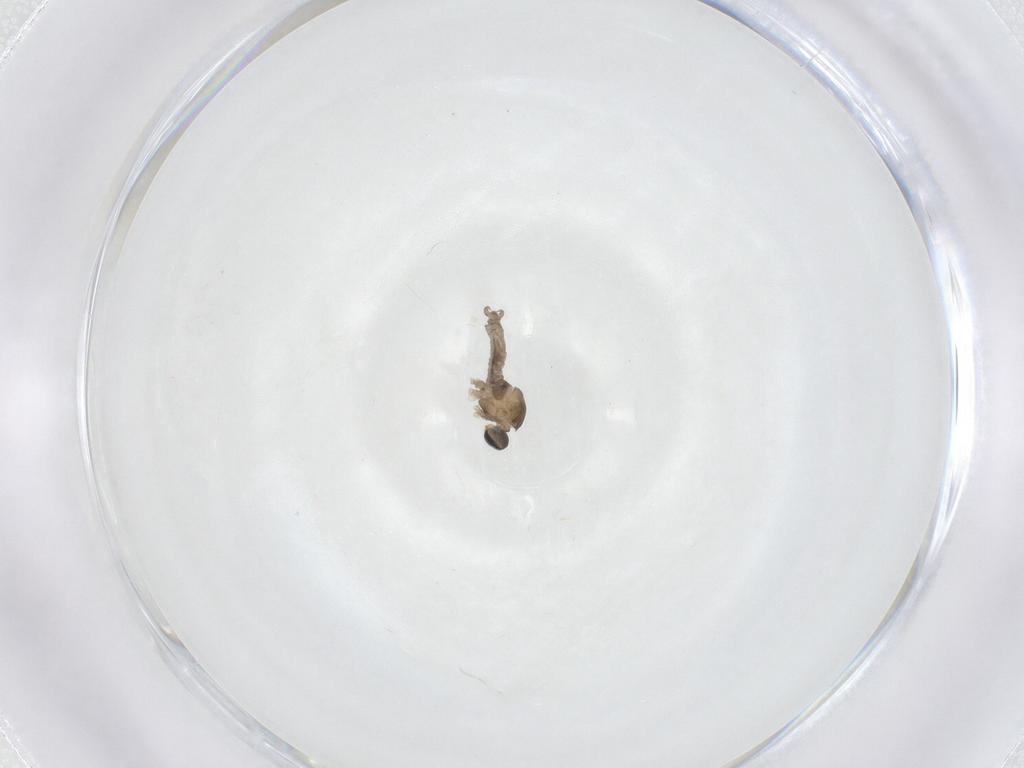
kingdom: Animalia
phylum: Arthropoda
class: Insecta
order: Diptera
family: Cecidomyiidae
